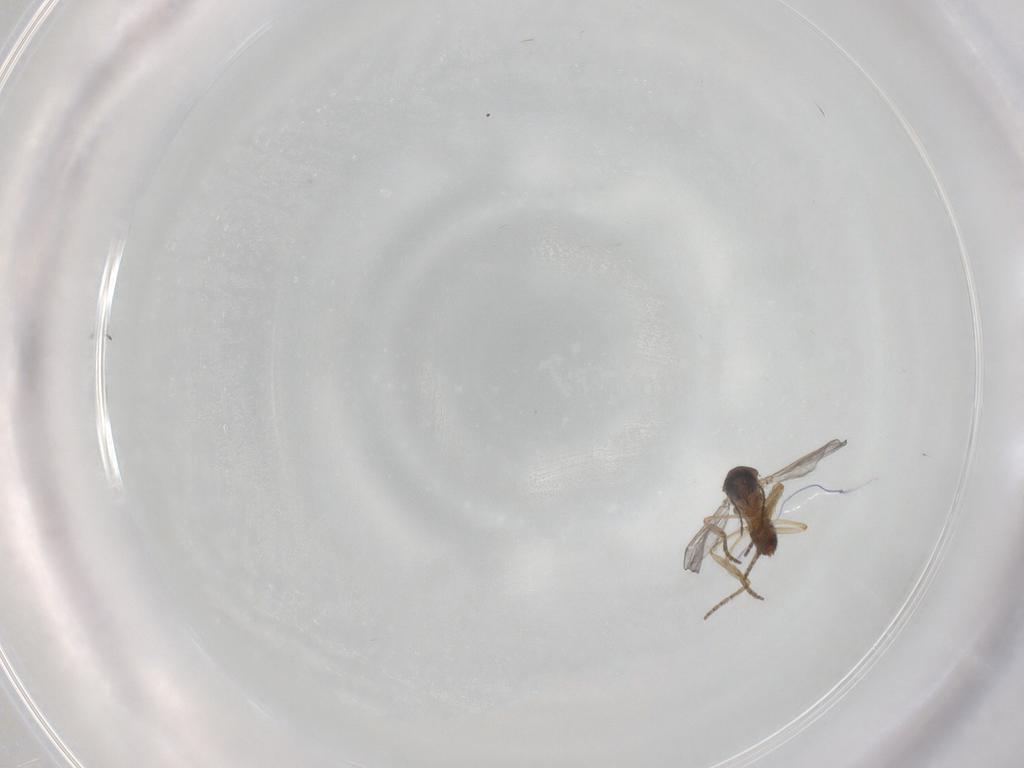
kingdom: Animalia
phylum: Arthropoda
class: Insecta
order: Diptera
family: Ceratopogonidae
